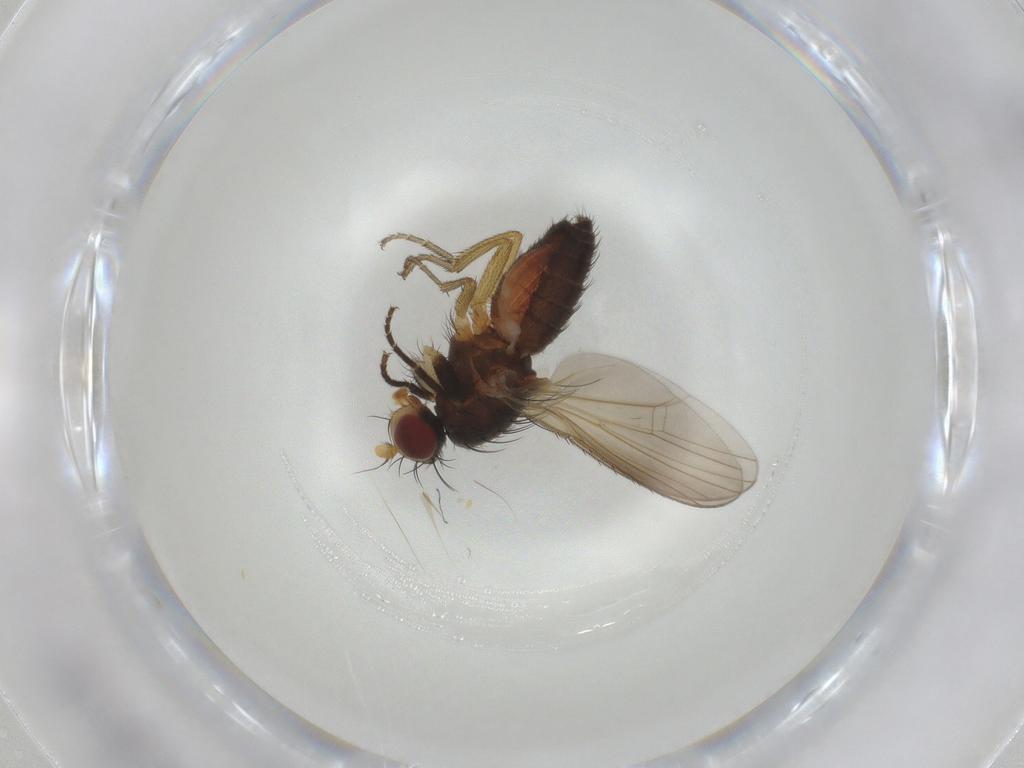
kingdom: Animalia
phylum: Arthropoda
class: Insecta
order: Diptera
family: Heleomyzidae
